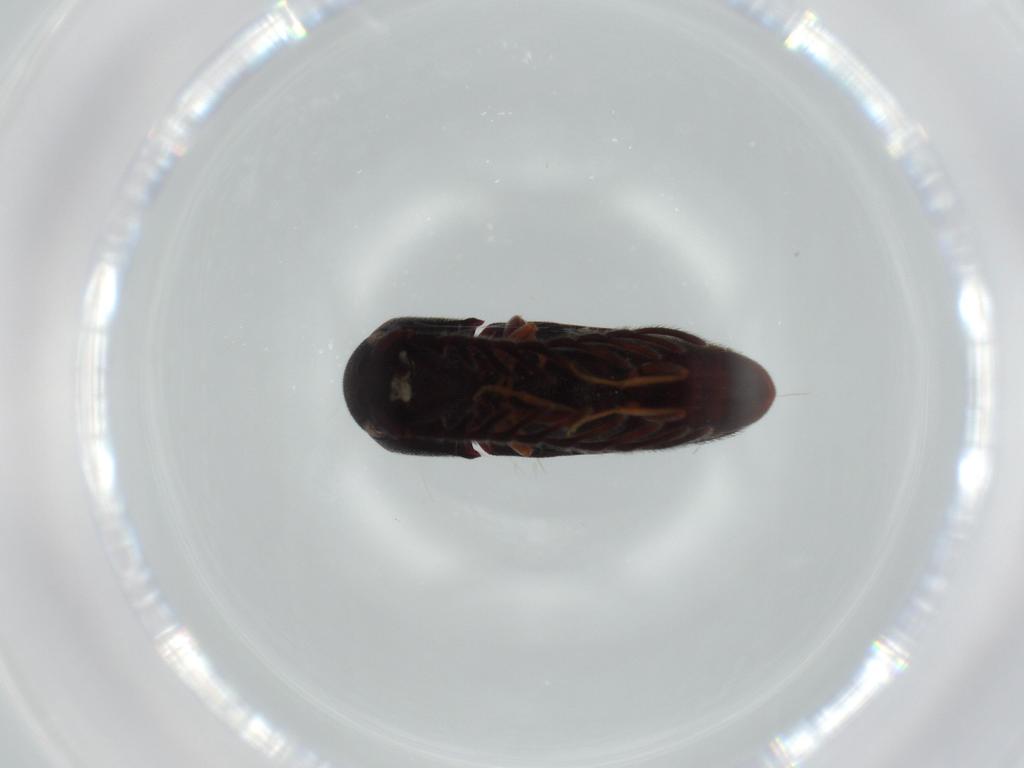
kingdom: Animalia
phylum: Arthropoda
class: Insecta
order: Coleoptera
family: Eucnemidae
